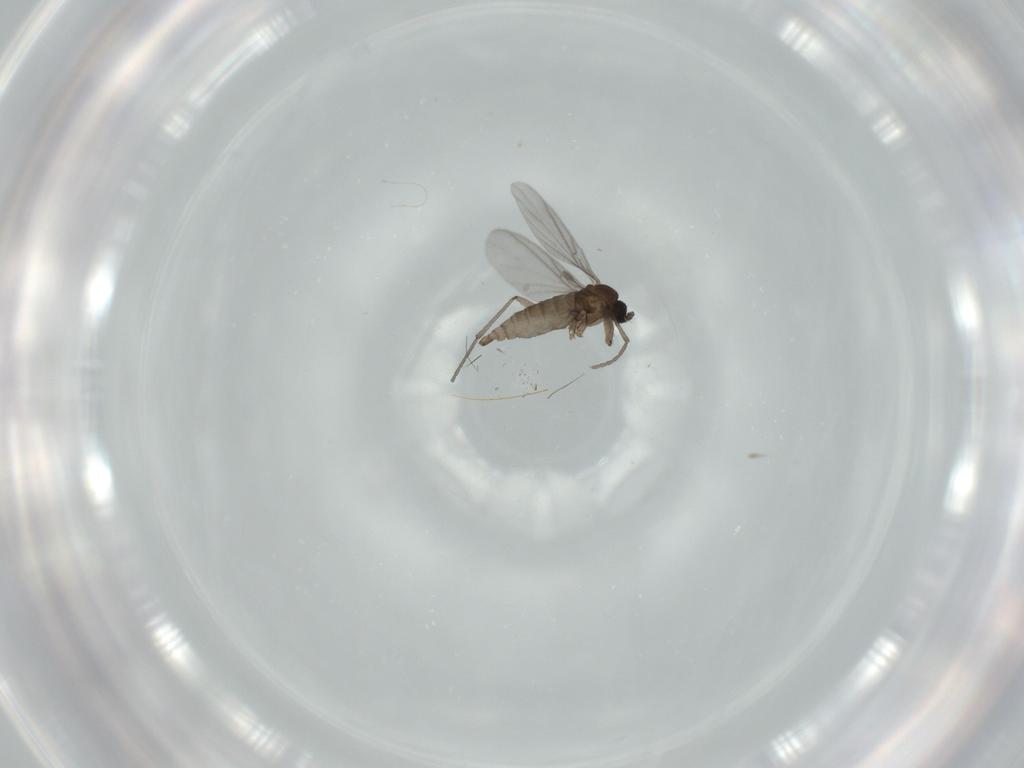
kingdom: Animalia
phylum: Arthropoda
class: Insecta
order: Diptera
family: Sciaridae
